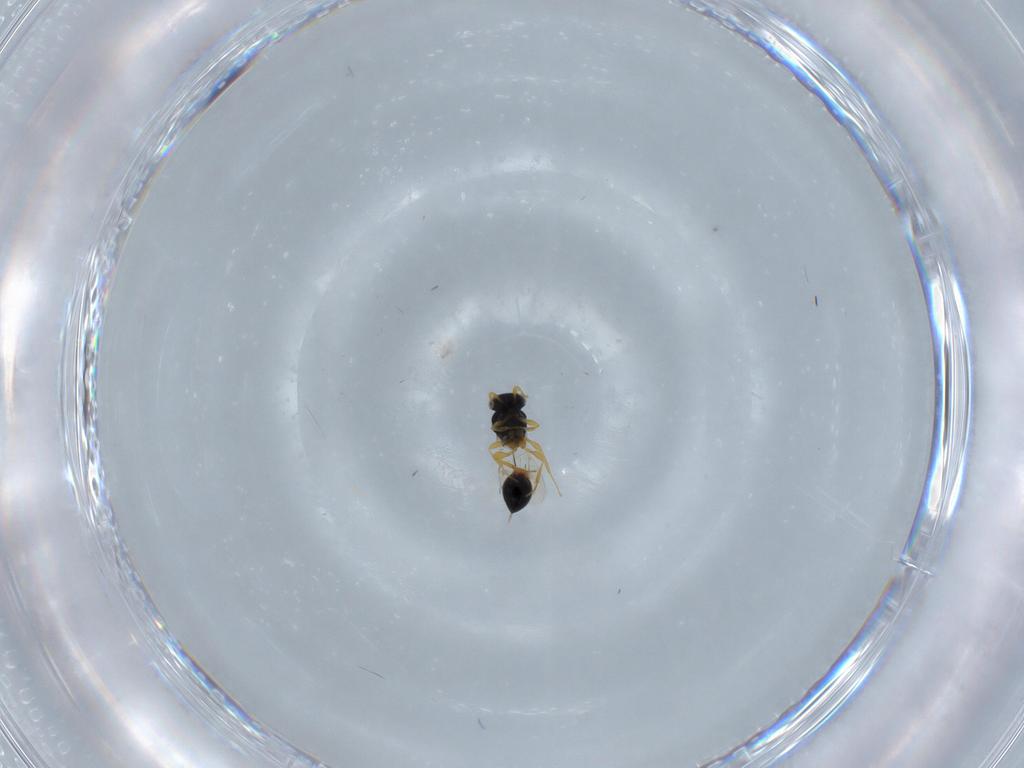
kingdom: Animalia
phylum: Arthropoda
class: Insecta
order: Hymenoptera
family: Platygastridae
